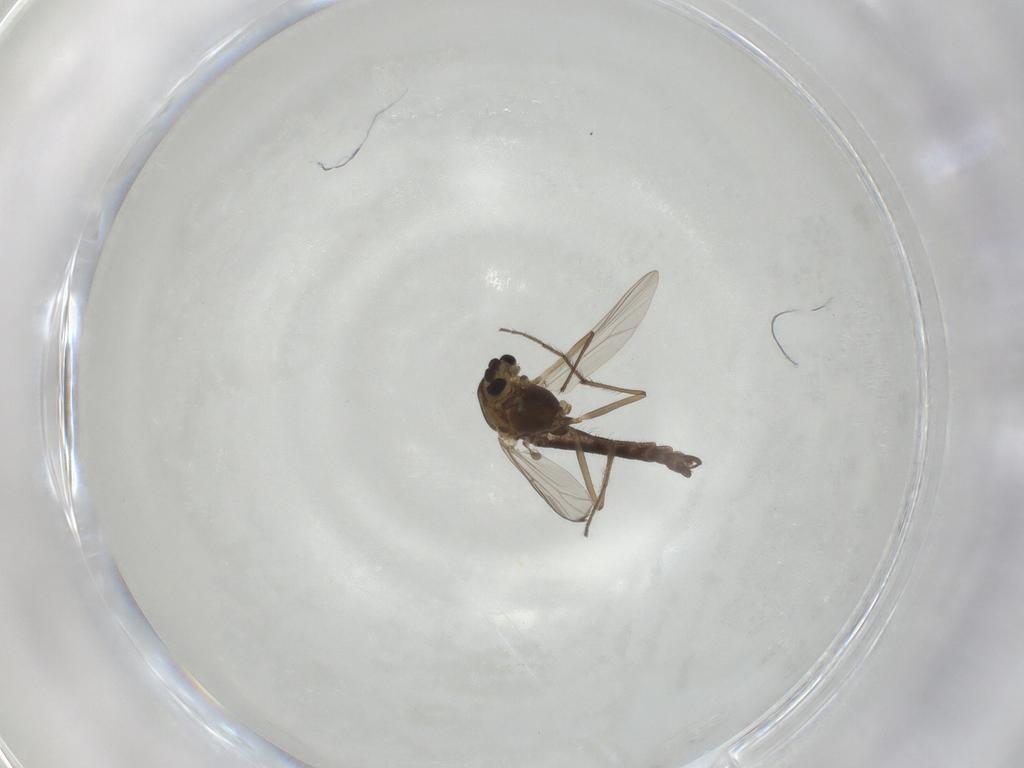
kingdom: Animalia
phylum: Arthropoda
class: Insecta
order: Diptera
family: Chironomidae
